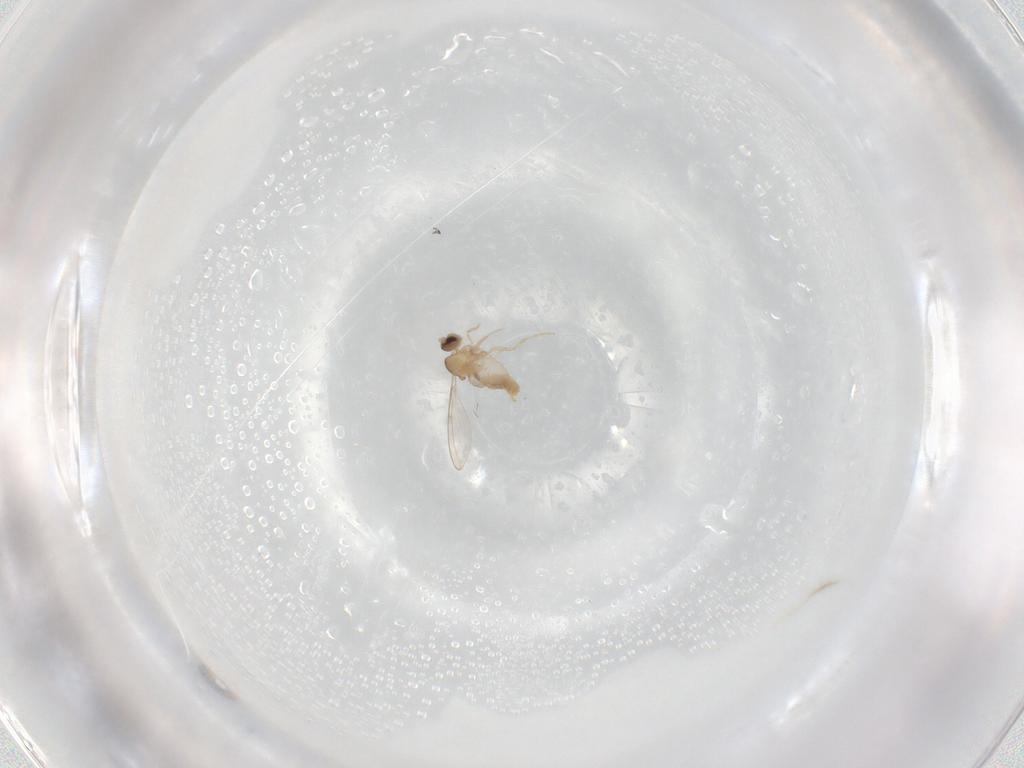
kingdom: Animalia
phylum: Arthropoda
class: Insecta
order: Diptera
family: Cecidomyiidae
